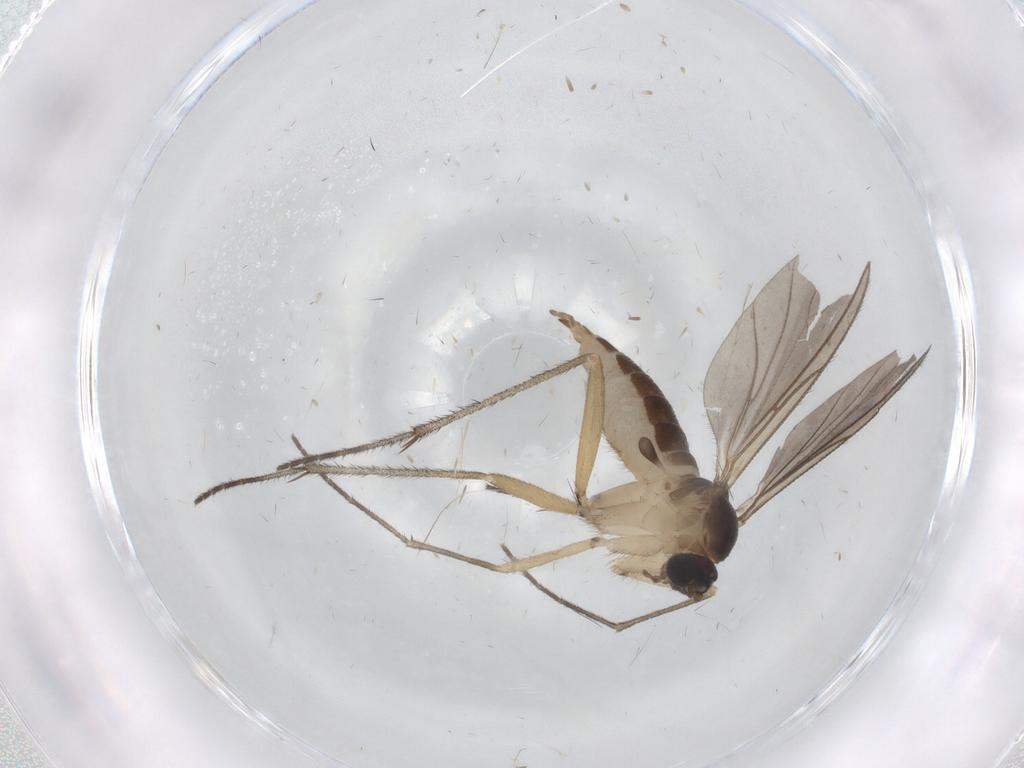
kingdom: Animalia
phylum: Arthropoda
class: Insecta
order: Diptera
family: Sciaridae
